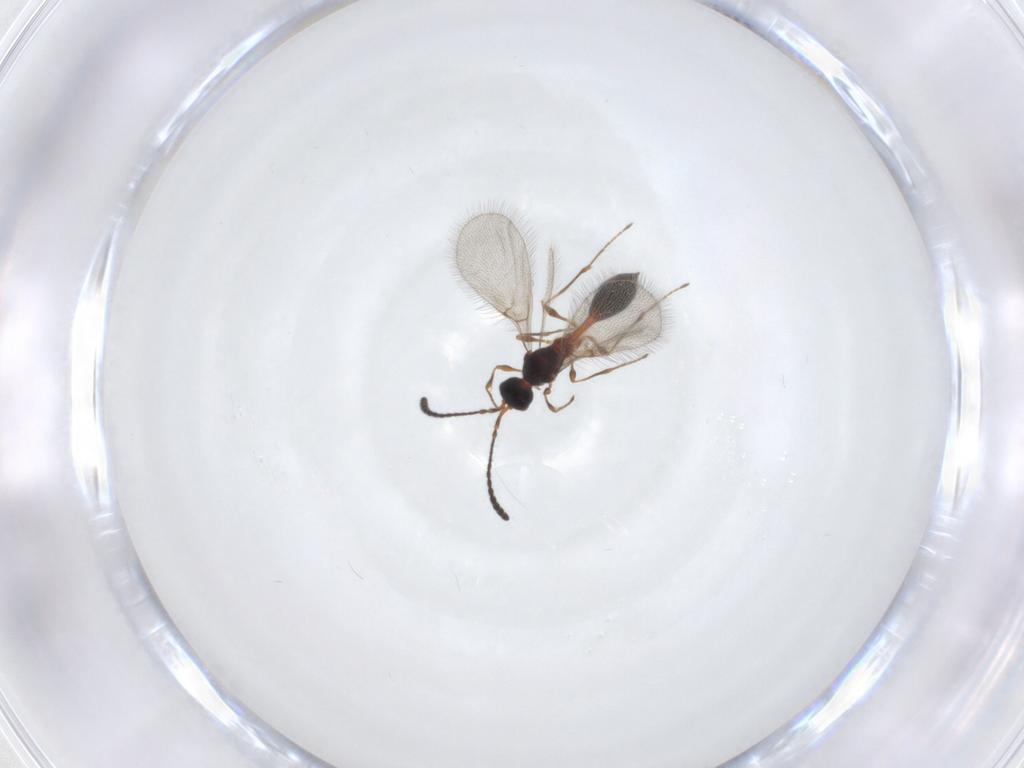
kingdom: Animalia
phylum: Arthropoda
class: Insecta
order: Hymenoptera
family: Diapriidae
